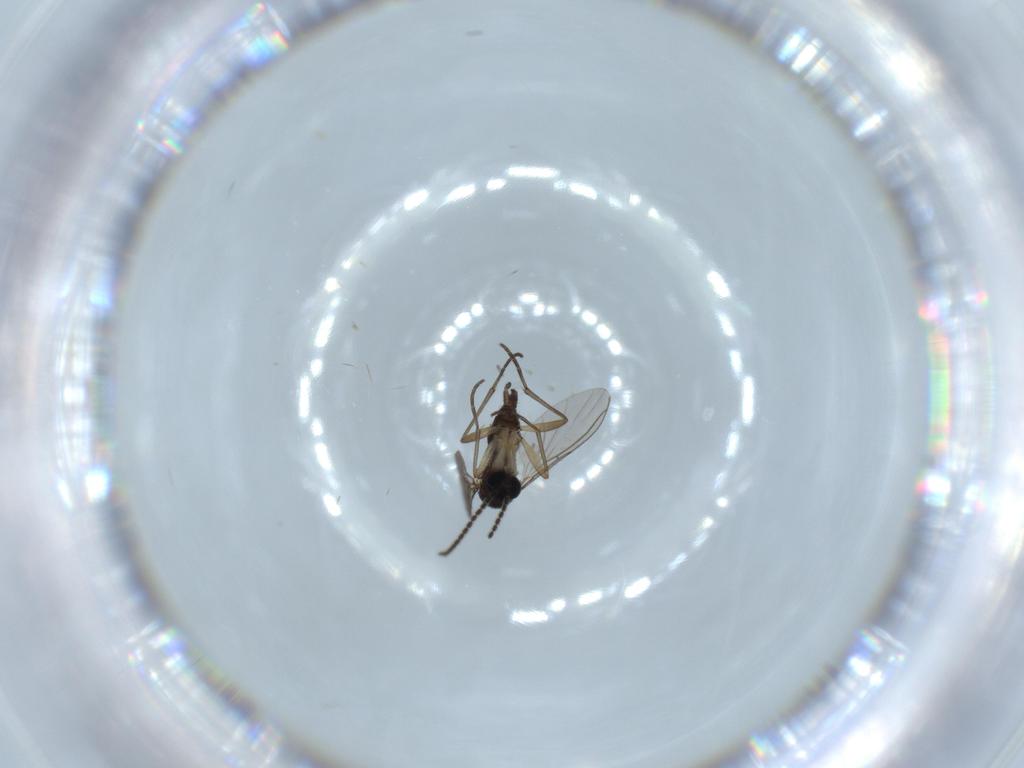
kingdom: Animalia
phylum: Arthropoda
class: Insecta
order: Diptera
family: Sciaridae
